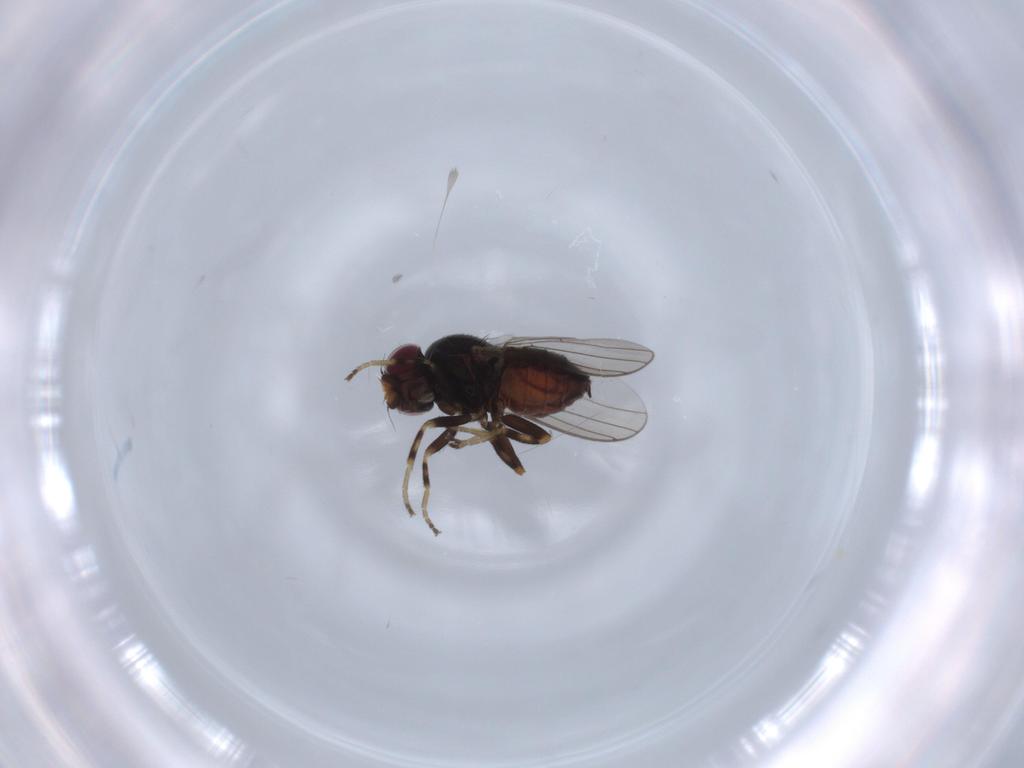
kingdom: Animalia
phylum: Arthropoda
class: Insecta
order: Diptera
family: Chloropidae
